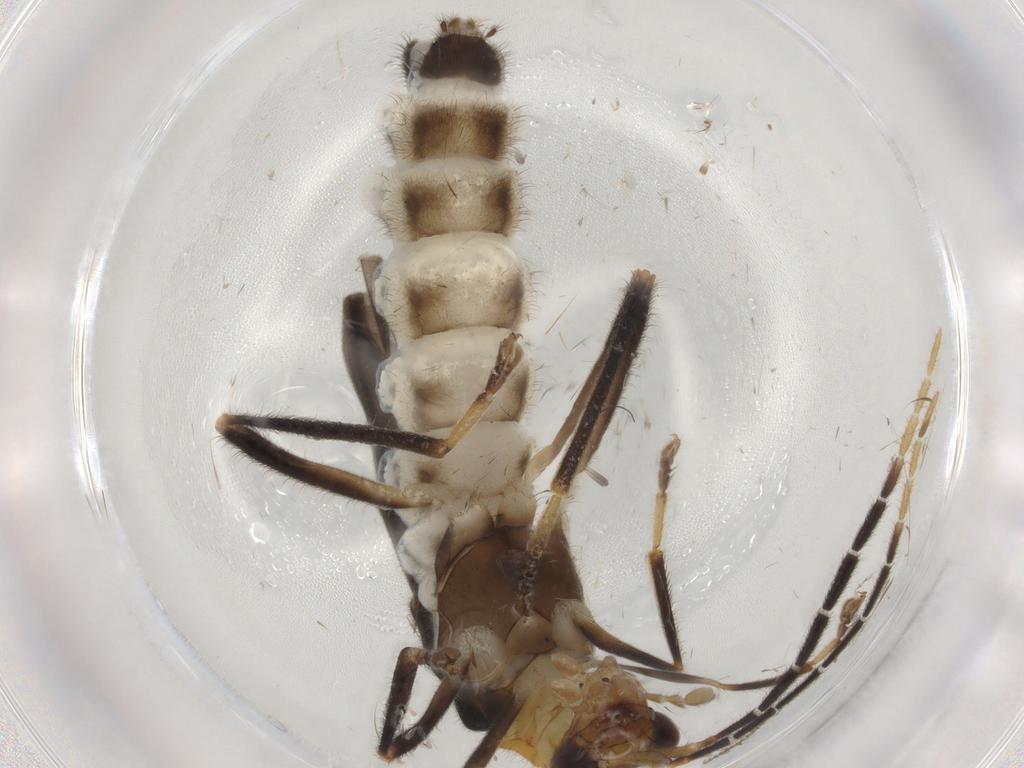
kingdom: Animalia
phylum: Arthropoda
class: Insecta
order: Coleoptera
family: Cantharidae
